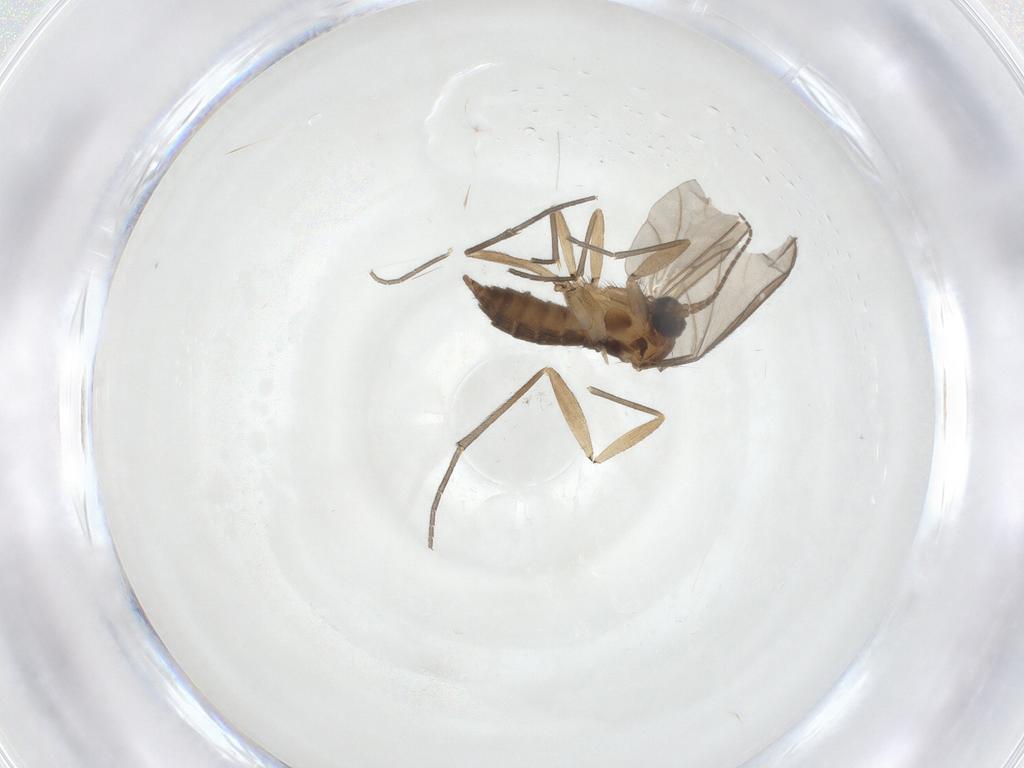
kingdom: Animalia
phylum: Arthropoda
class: Insecta
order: Diptera
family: Sciaridae
